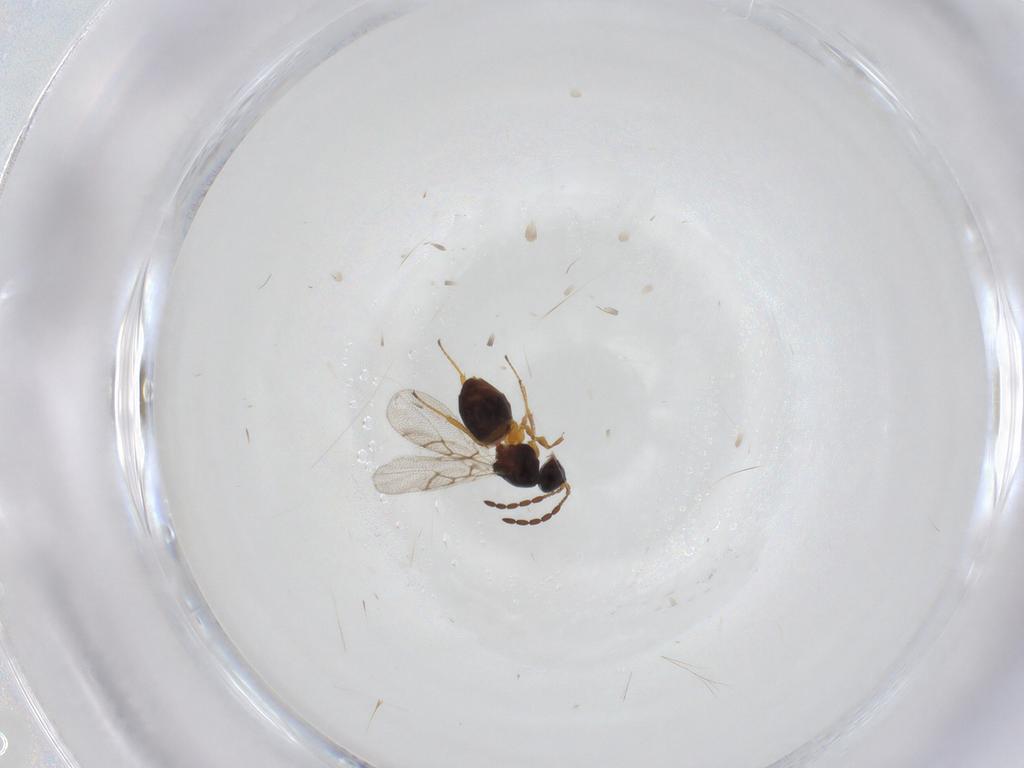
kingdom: Animalia
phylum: Arthropoda
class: Insecta
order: Hymenoptera
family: Figitidae
